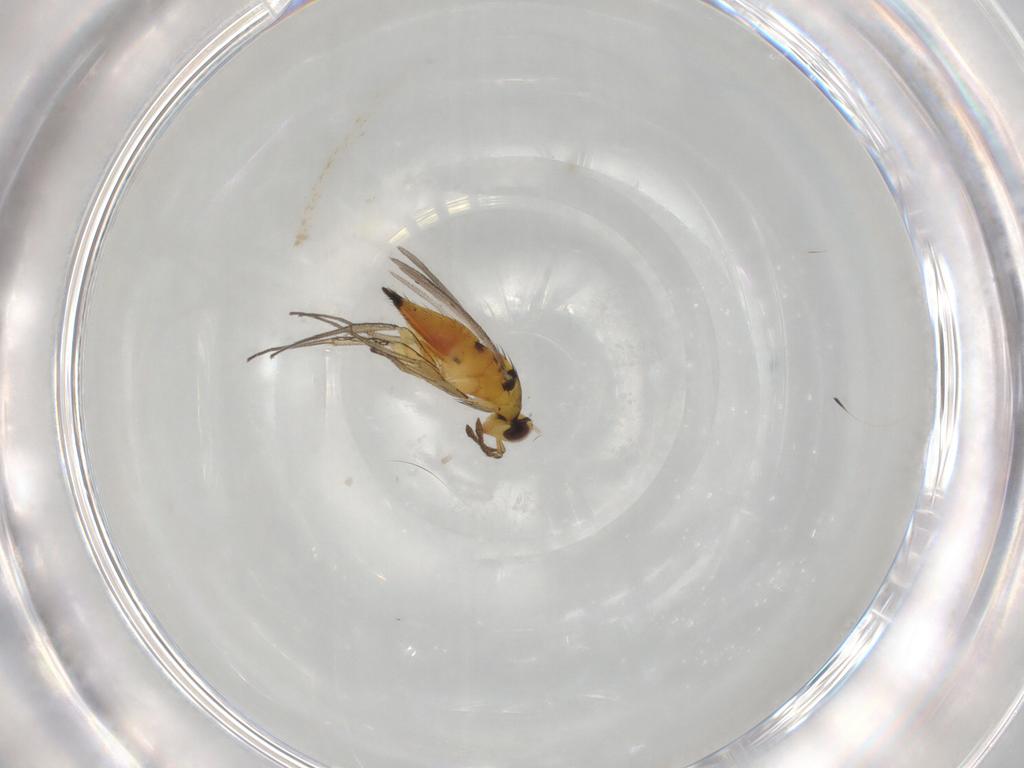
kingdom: Animalia
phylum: Arthropoda
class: Insecta
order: Hymenoptera
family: Eulophidae
